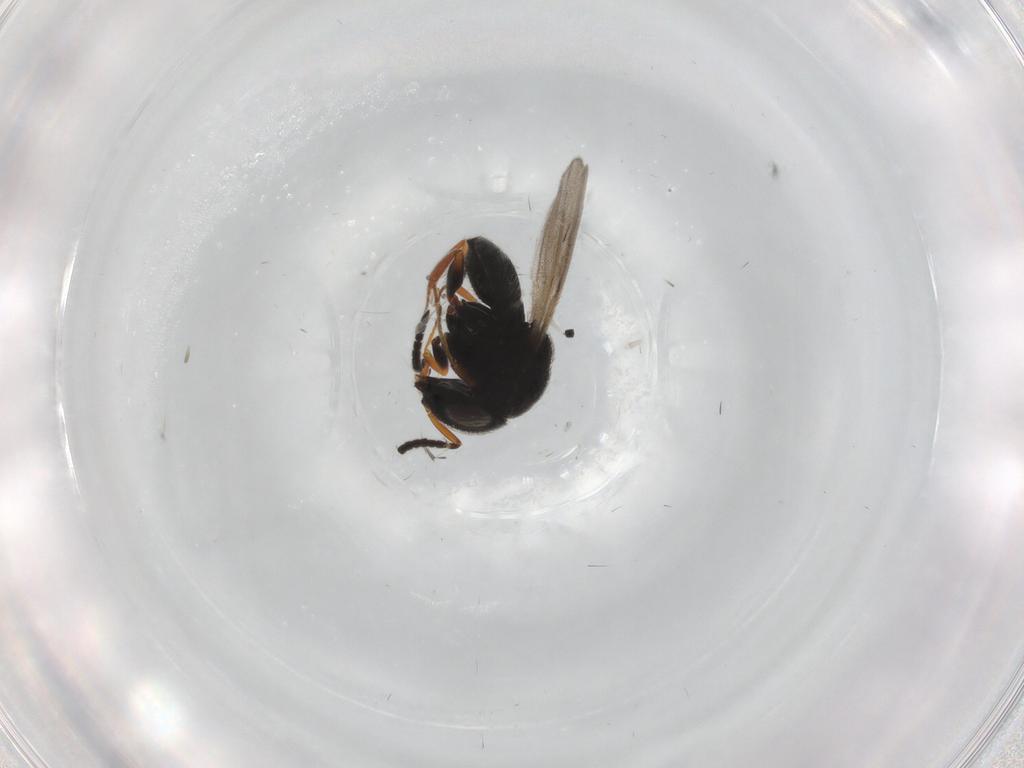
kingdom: Animalia
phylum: Arthropoda
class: Insecta
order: Hymenoptera
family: Scelionidae
